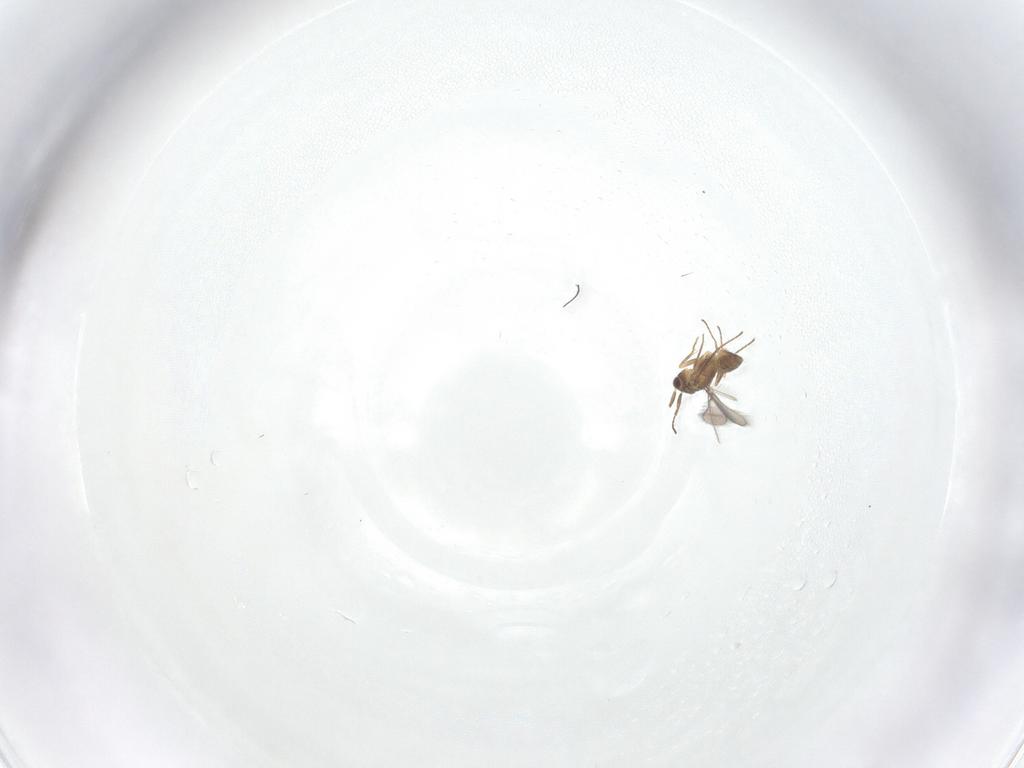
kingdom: Animalia
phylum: Arthropoda
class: Insecta
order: Hymenoptera
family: Mymaridae
